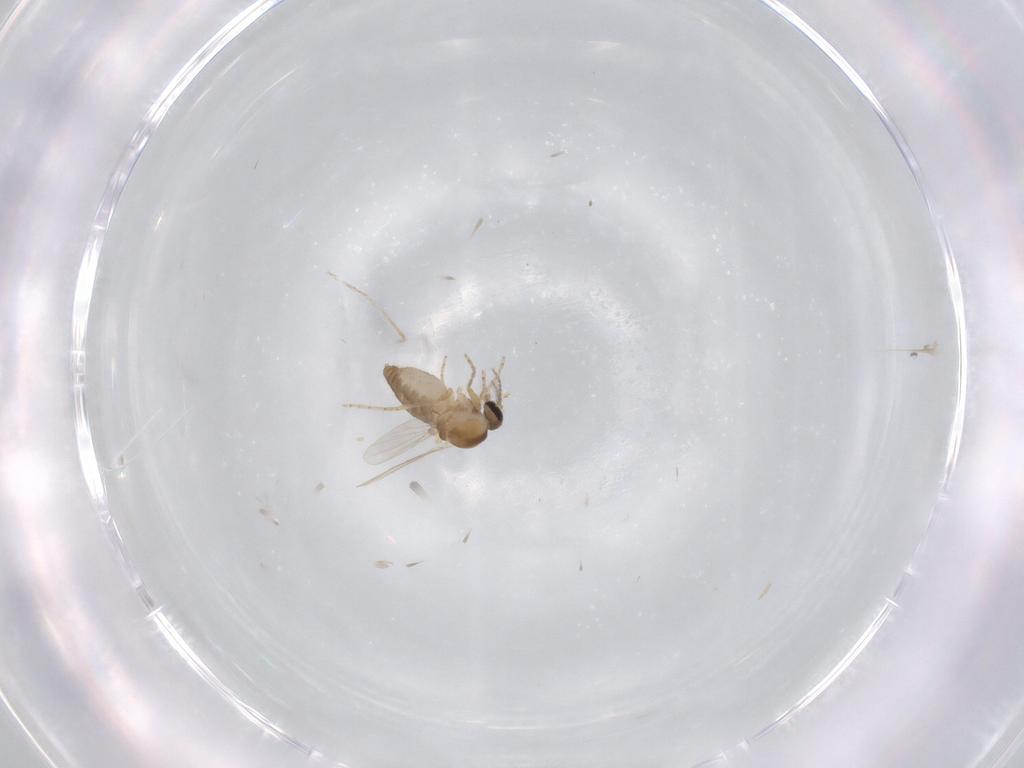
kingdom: Animalia
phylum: Arthropoda
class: Insecta
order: Diptera
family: Ceratopogonidae
